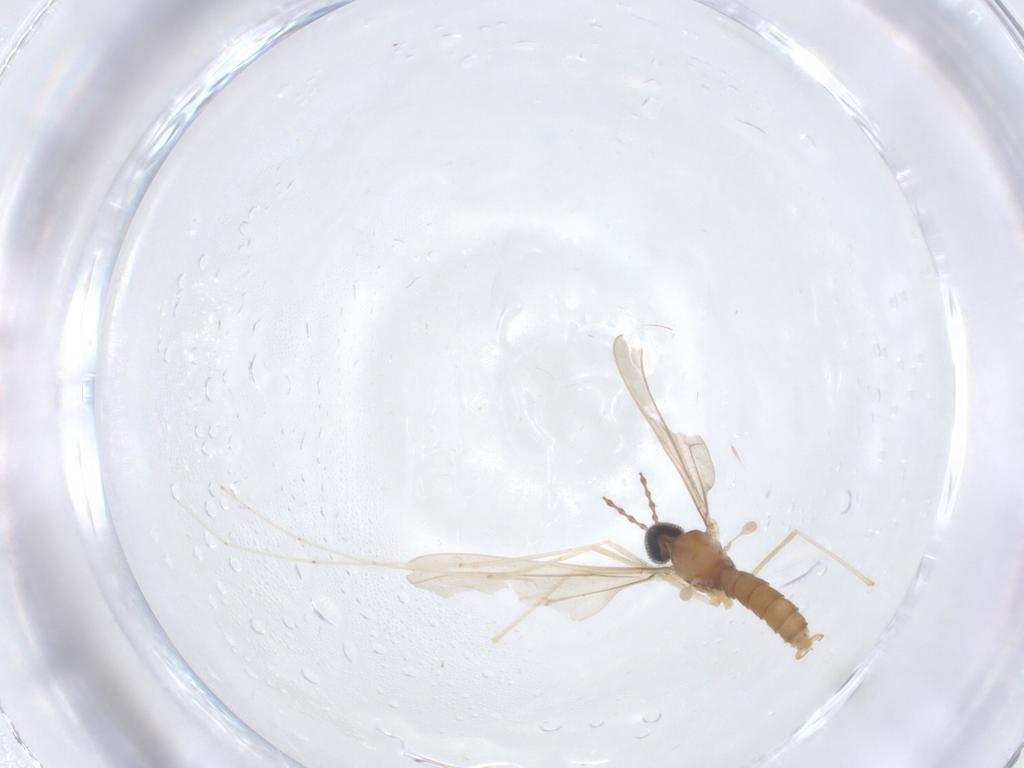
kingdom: Animalia
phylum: Arthropoda
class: Insecta
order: Diptera
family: Cecidomyiidae
